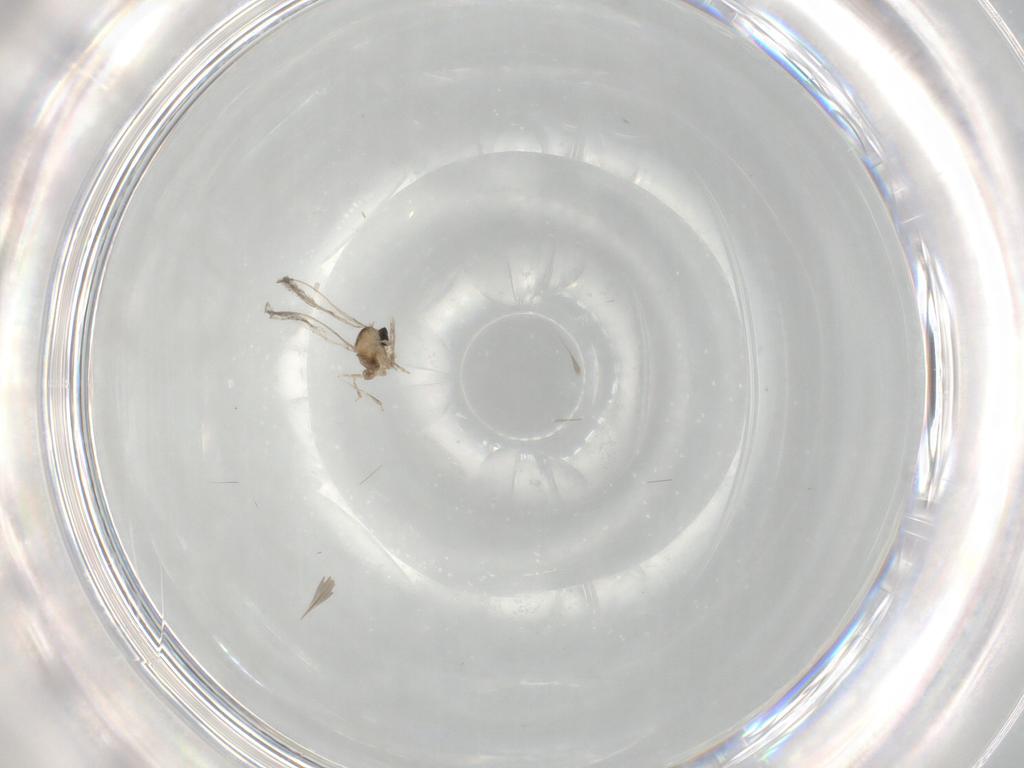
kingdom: Animalia
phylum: Arthropoda
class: Insecta
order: Diptera
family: Cecidomyiidae
